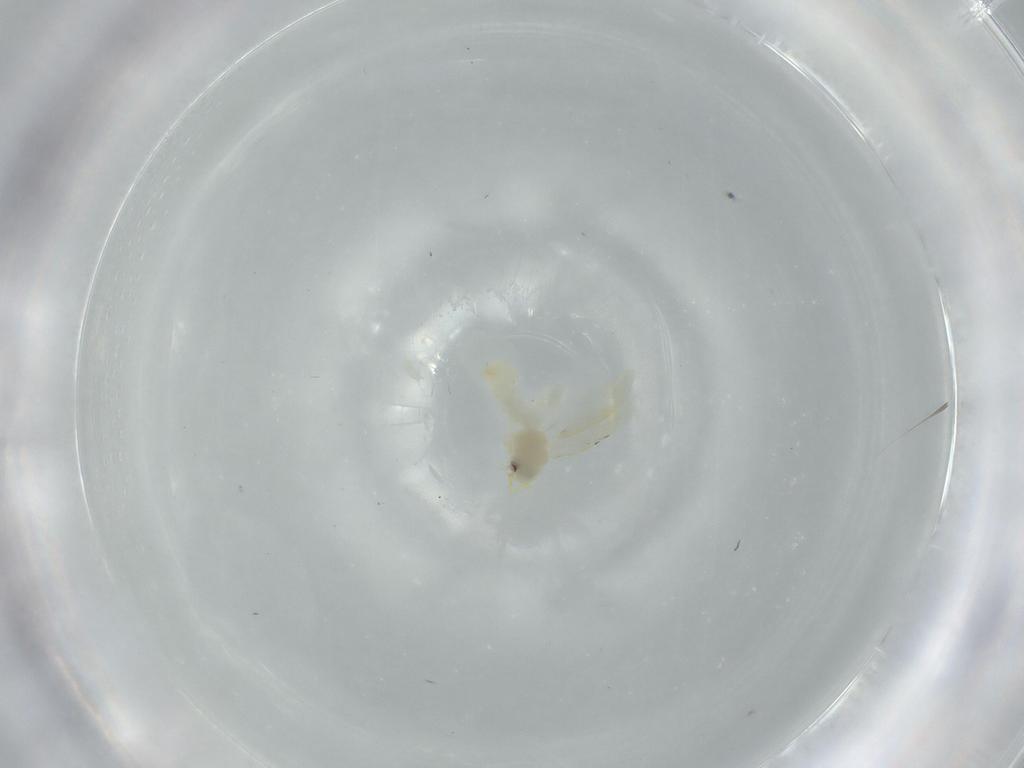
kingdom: Animalia
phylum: Arthropoda
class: Insecta
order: Hemiptera
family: Aleyrodidae
